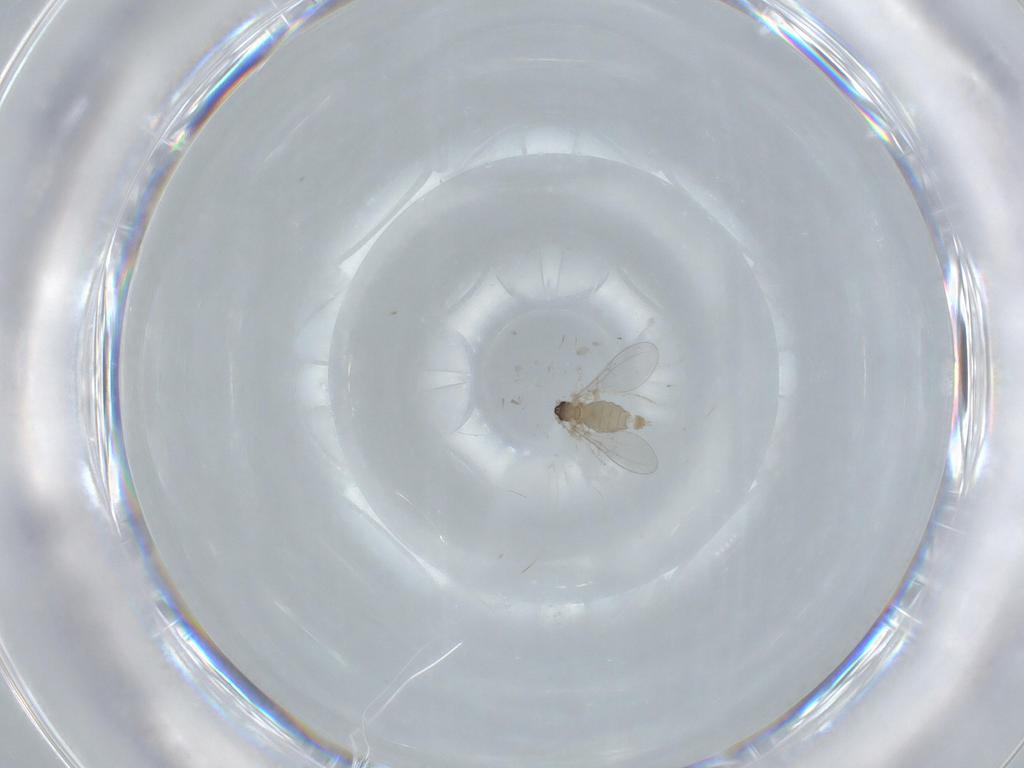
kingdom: Animalia
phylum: Arthropoda
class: Insecta
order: Diptera
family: Cecidomyiidae
